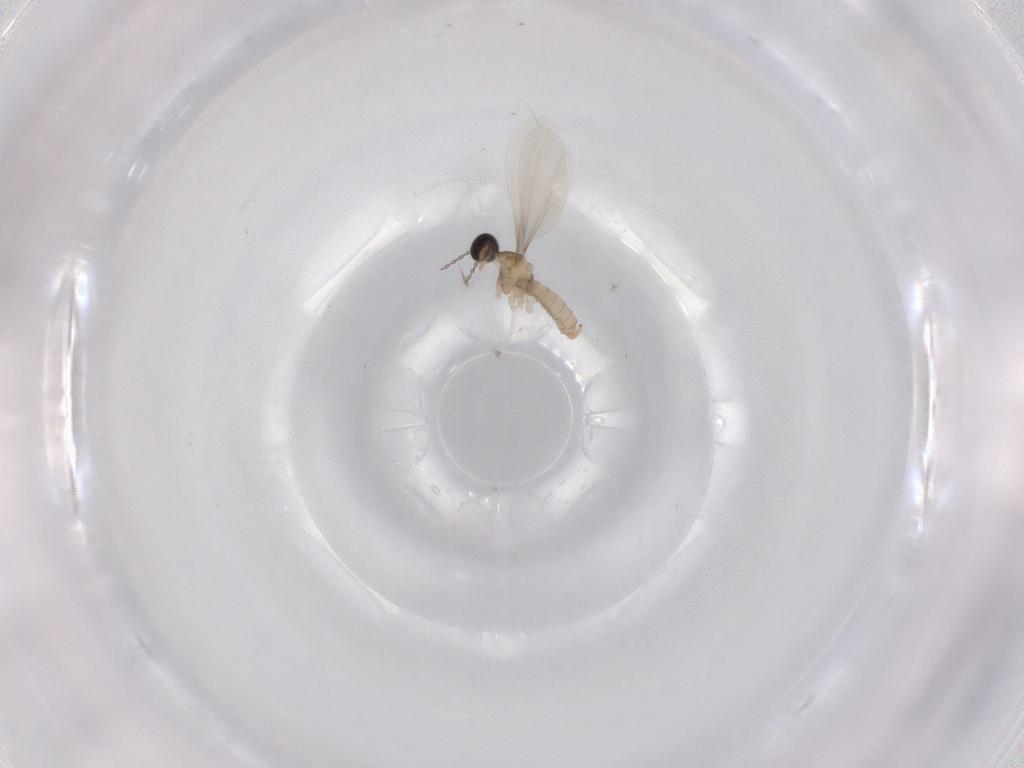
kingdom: Animalia
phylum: Arthropoda
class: Insecta
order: Diptera
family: Cecidomyiidae
